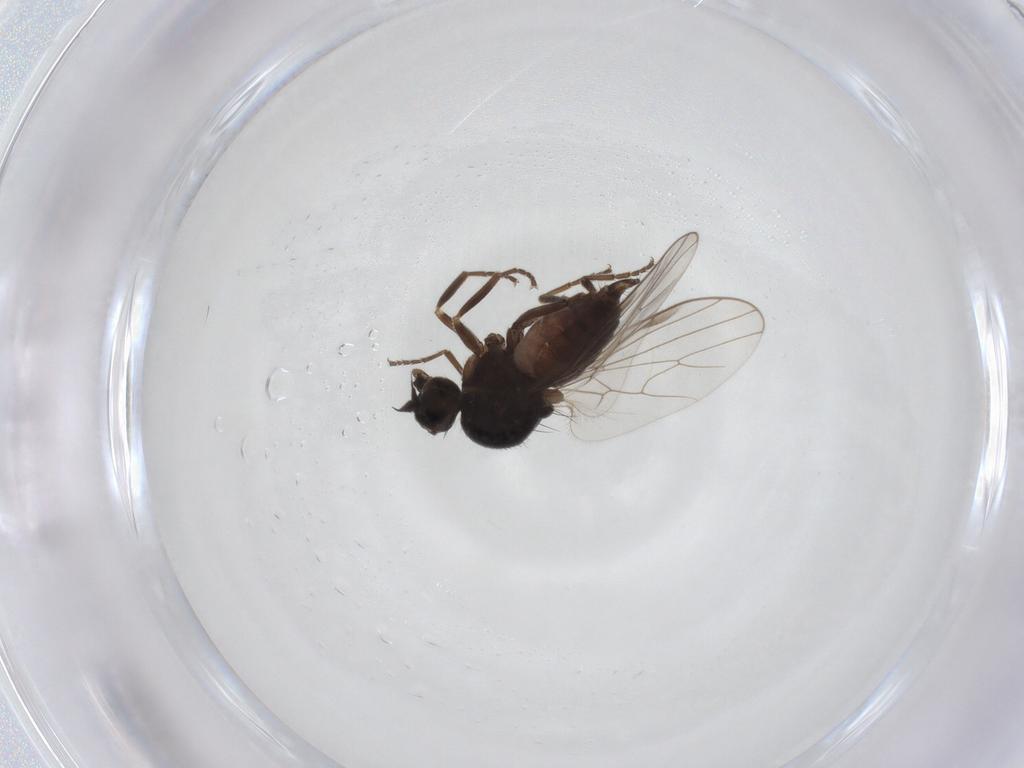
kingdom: Animalia
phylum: Arthropoda
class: Insecta
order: Diptera
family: Hybotidae
